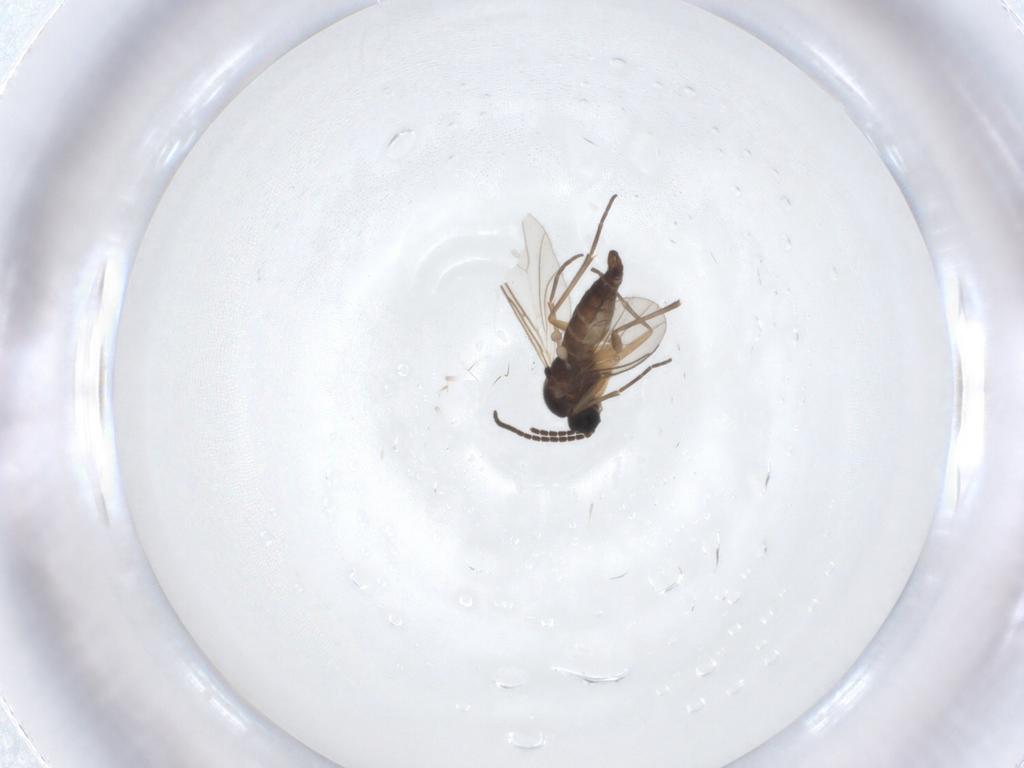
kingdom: Animalia
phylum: Arthropoda
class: Insecta
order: Diptera
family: Sciaridae
